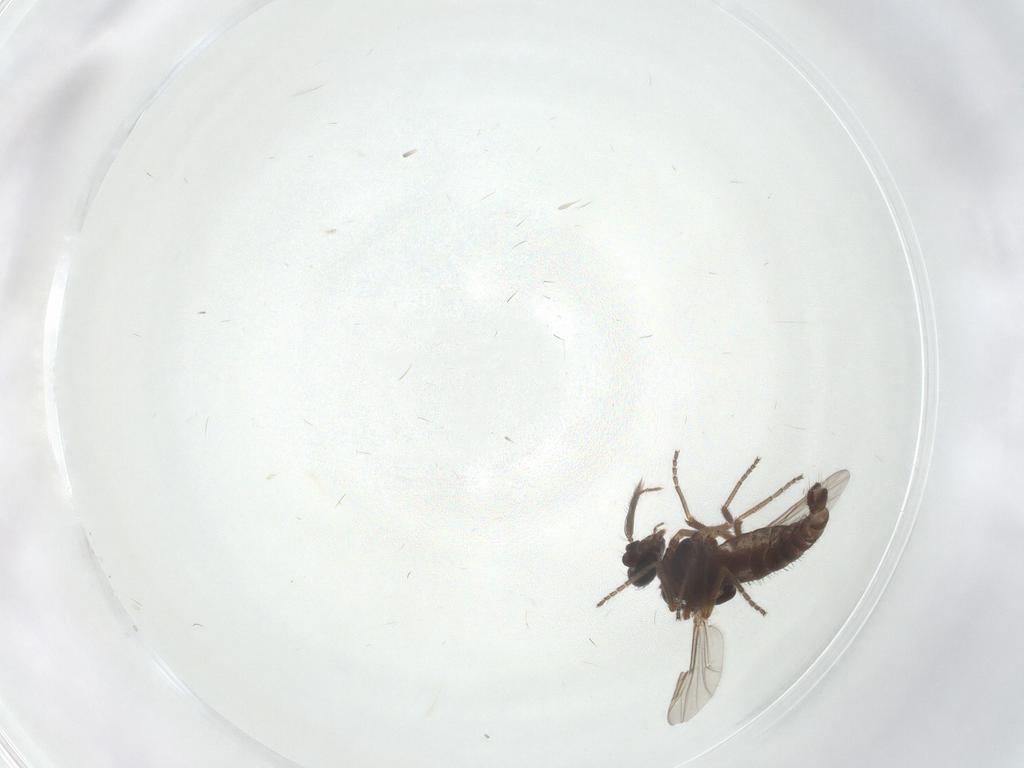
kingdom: Animalia
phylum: Arthropoda
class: Insecta
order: Diptera
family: Ceratopogonidae
